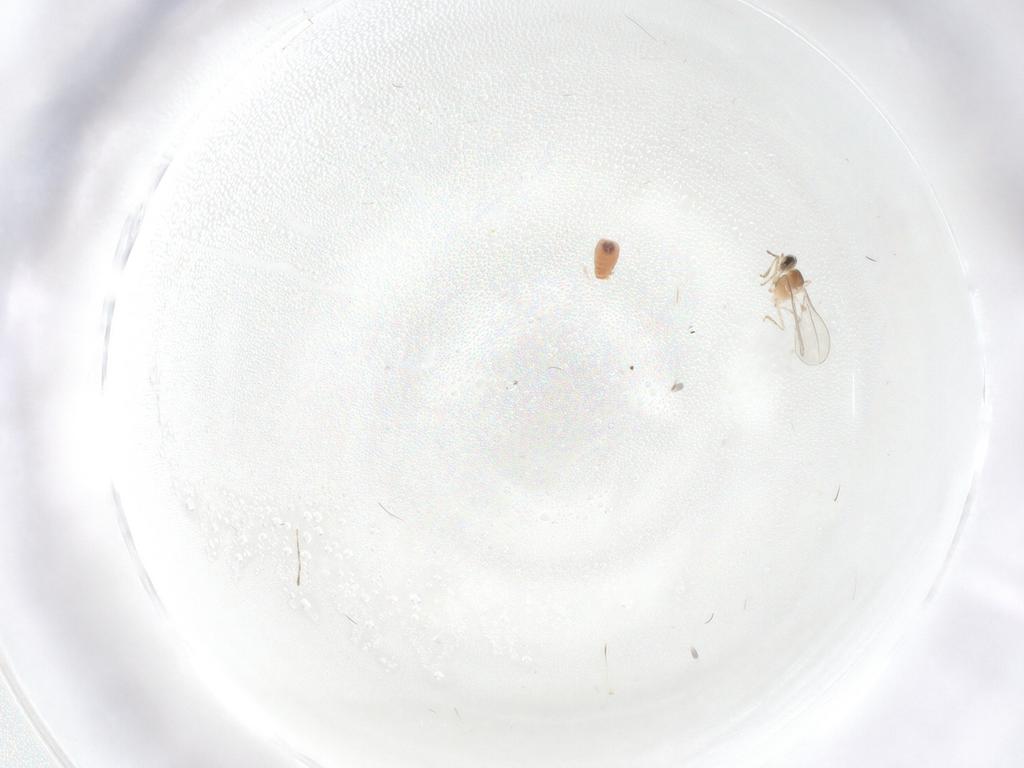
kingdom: Animalia
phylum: Arthropoda
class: Insecta
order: Diptera
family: Cecidomyiidae
